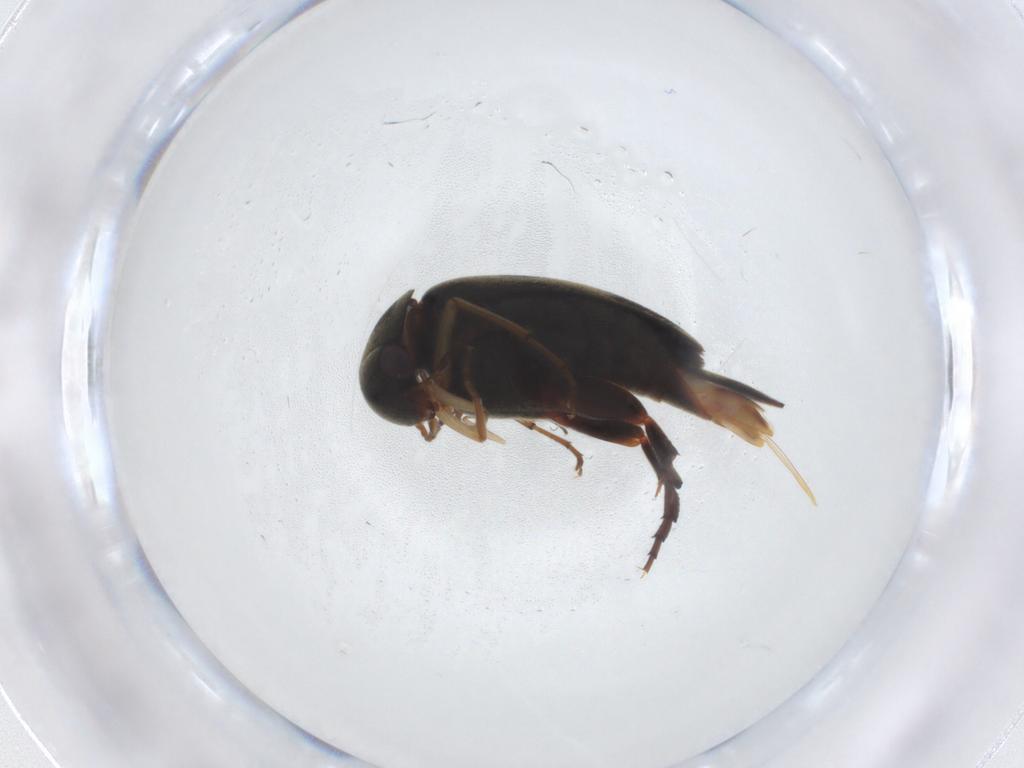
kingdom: Animalia
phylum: Arthropoda
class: Insecta
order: Coleoptera
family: Mordellidae
